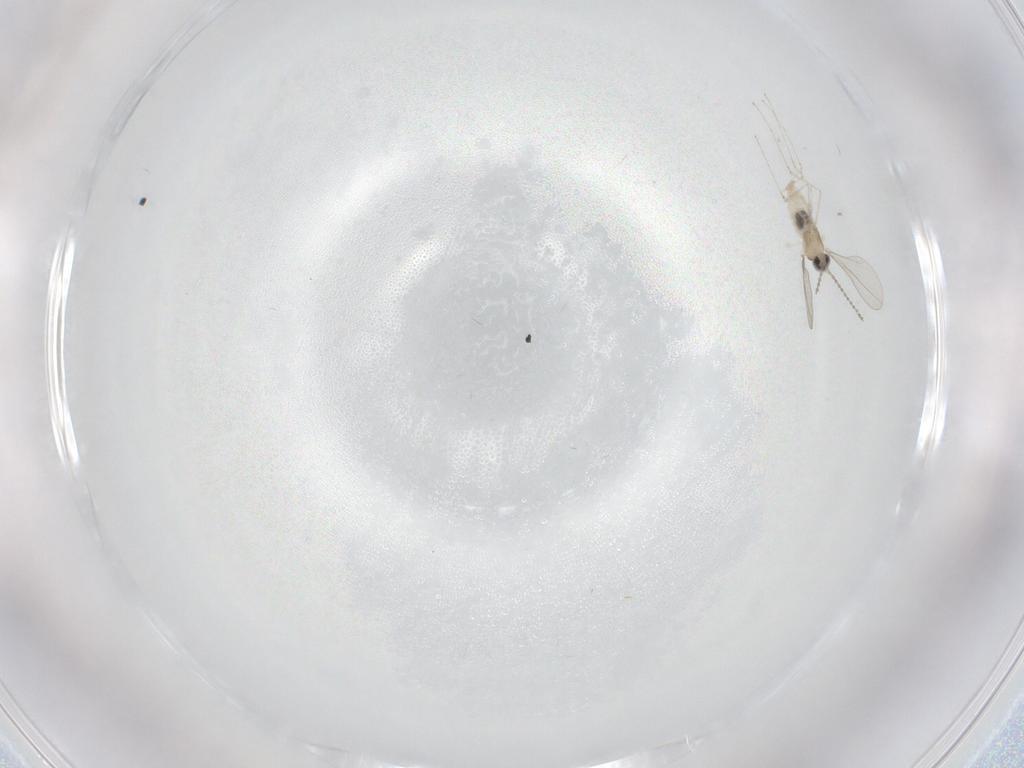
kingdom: Animalia
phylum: Arthropoda
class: Insecta
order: Diptera
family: Cecidomyiidae
